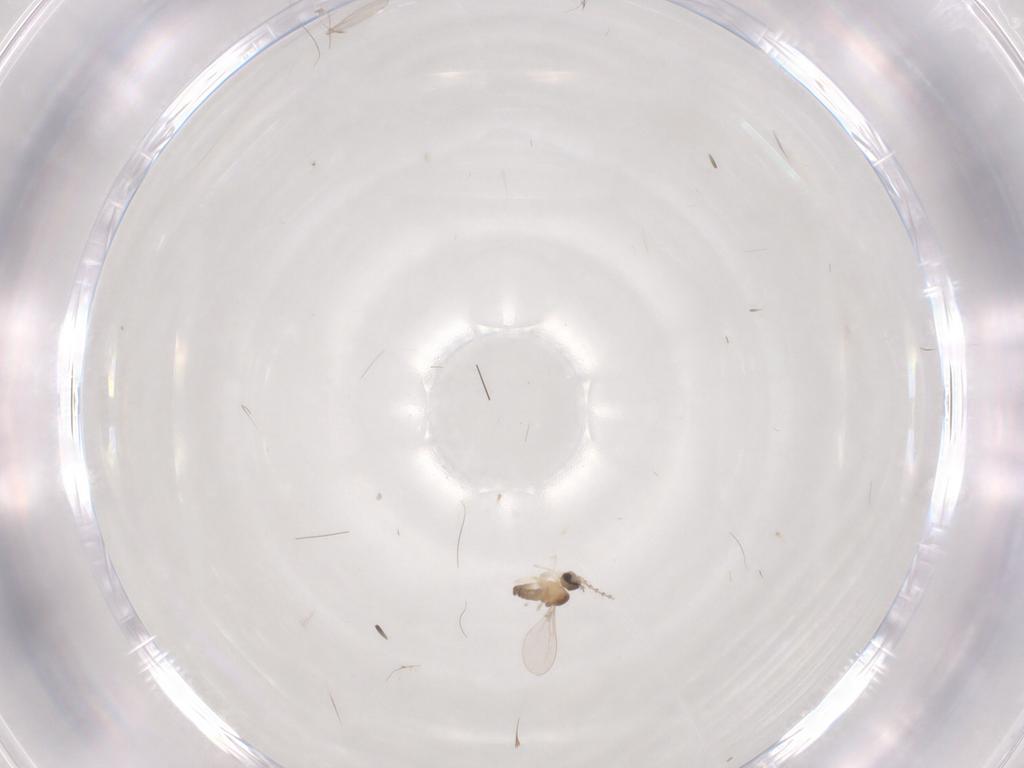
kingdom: Animalia
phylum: Arthropoda
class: Insecta
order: Diptera
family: Cecidomyiidae
